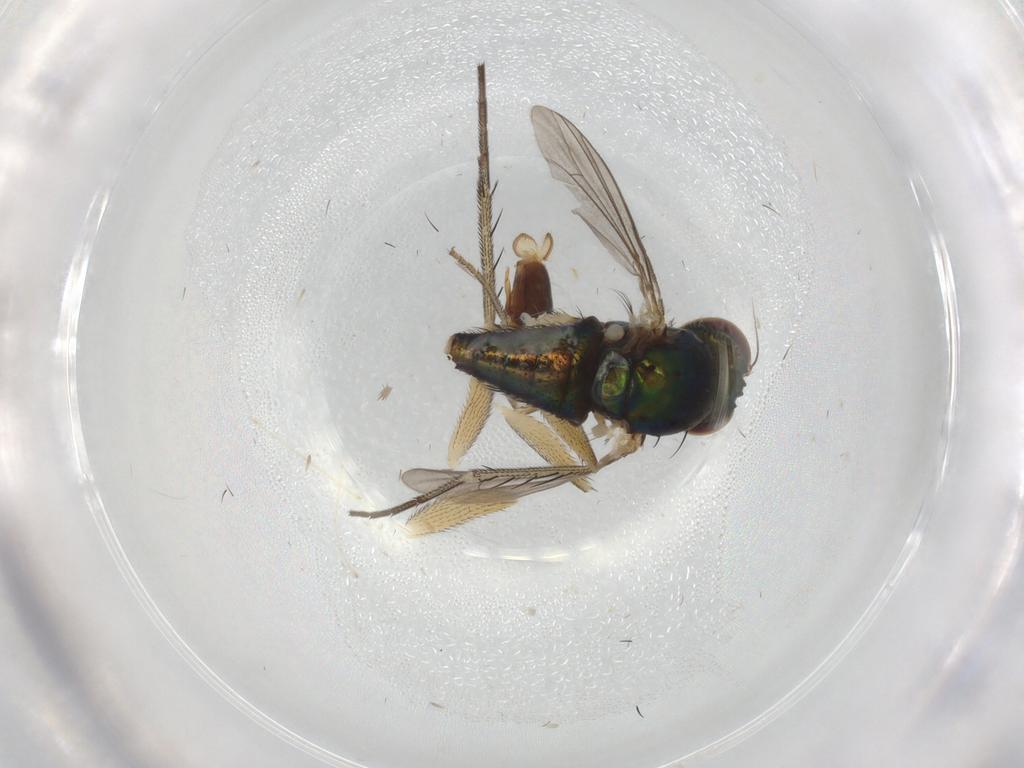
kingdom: Animalia
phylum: Arthropoda
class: Insecta
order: Diptera
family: Dolichopodidae
